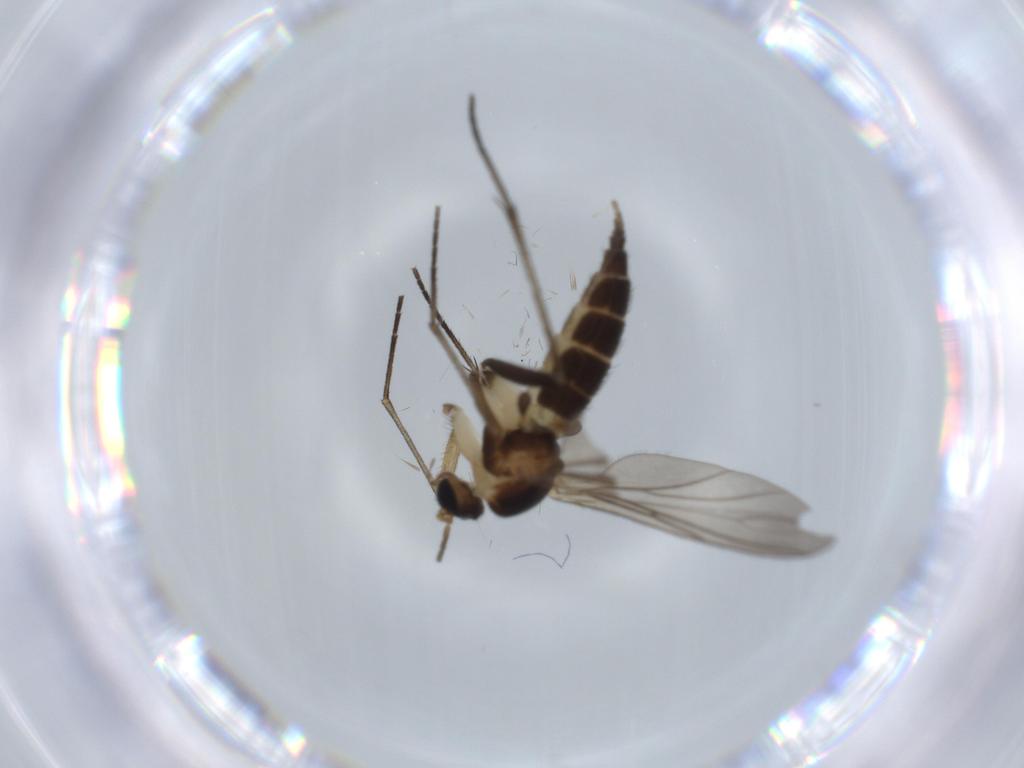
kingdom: Animalia
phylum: Arthropoda
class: Insecta
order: Diptera
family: Sciaridae
